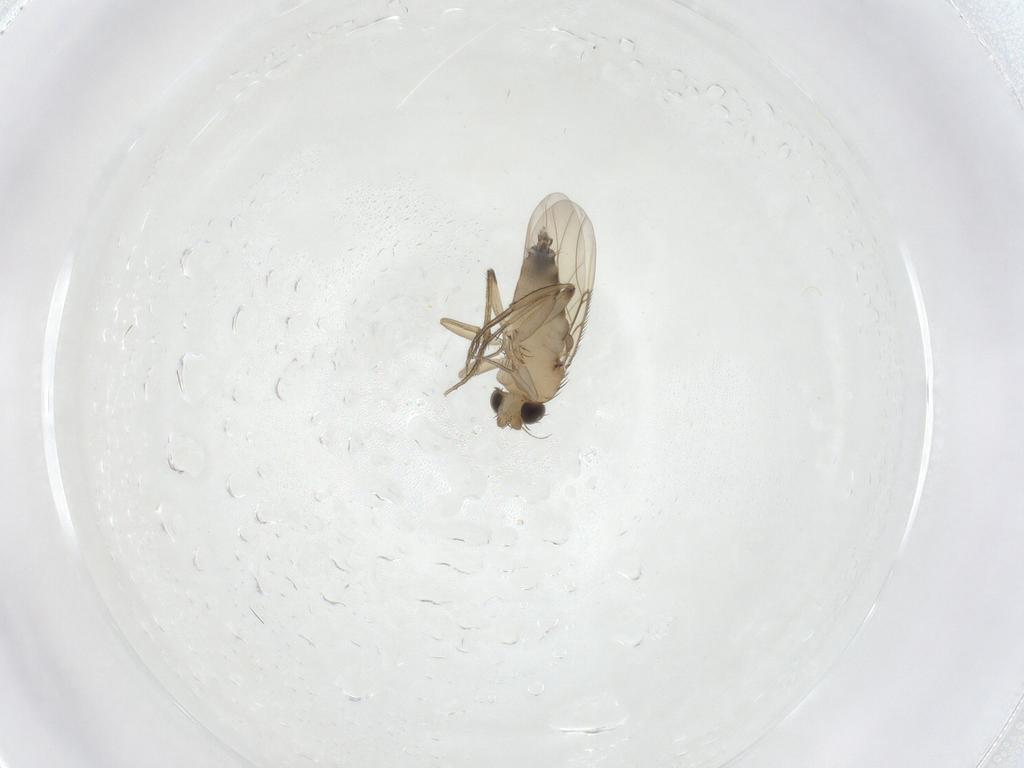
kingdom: Animalia
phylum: Arthropoda
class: Insecta
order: Diptera
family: Phoridae
